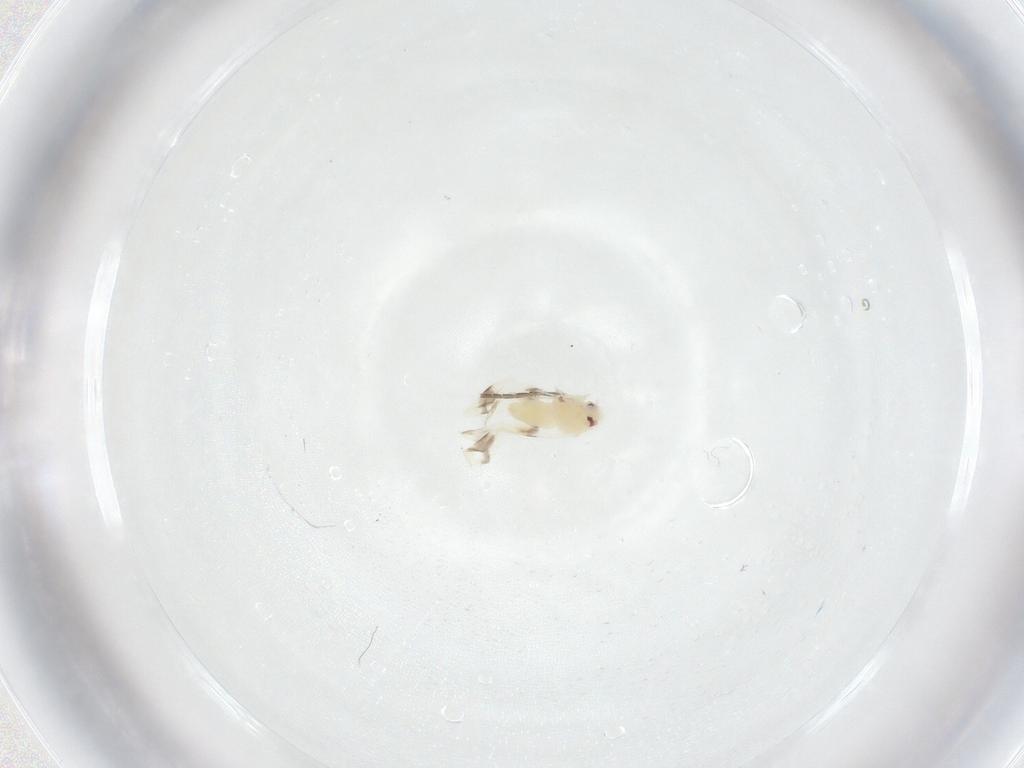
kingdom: Animalia
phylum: Arthropoda
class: Insecta
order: Hemiptera
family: Aleyrodidae
